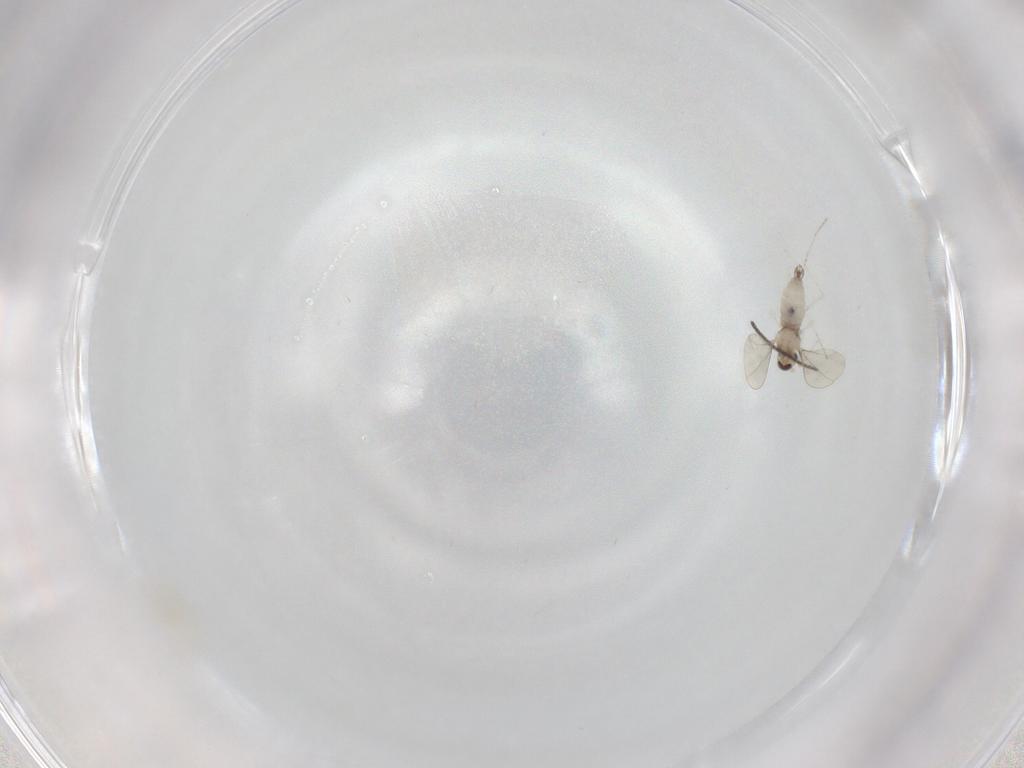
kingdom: Animalia
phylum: Arthropoda
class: Insecta
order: Diptera
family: Cecidomyiidae
